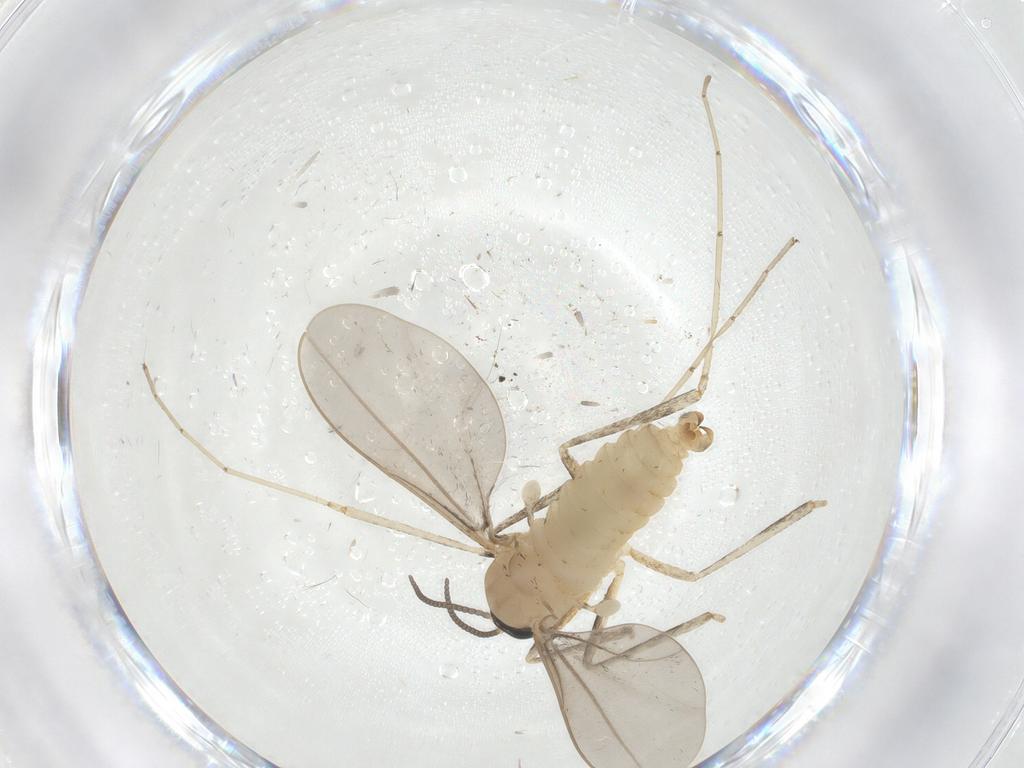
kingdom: Animalia
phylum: Arthropoda
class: Insecta
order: Diptera
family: Cecidomyiidae
